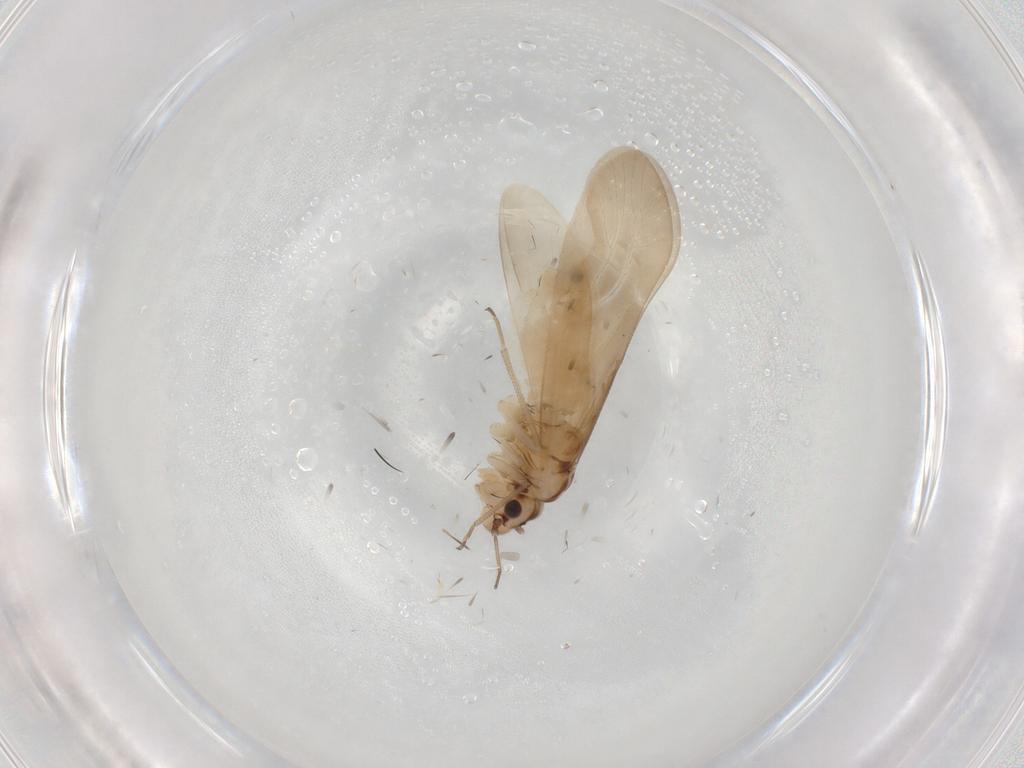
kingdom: Animalia
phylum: Arthropoda
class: Insecta
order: Psocodea
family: Caeciliusidae
